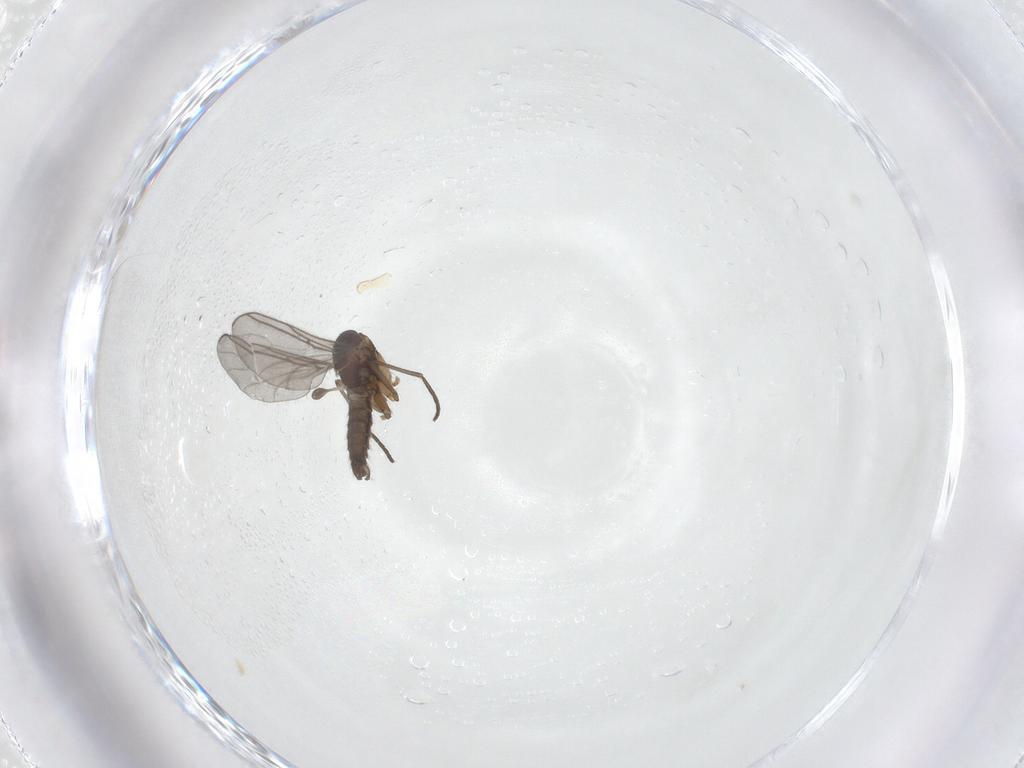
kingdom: Animalia
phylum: Arthropoda
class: Insecta
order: Diptera
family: Phoridae
